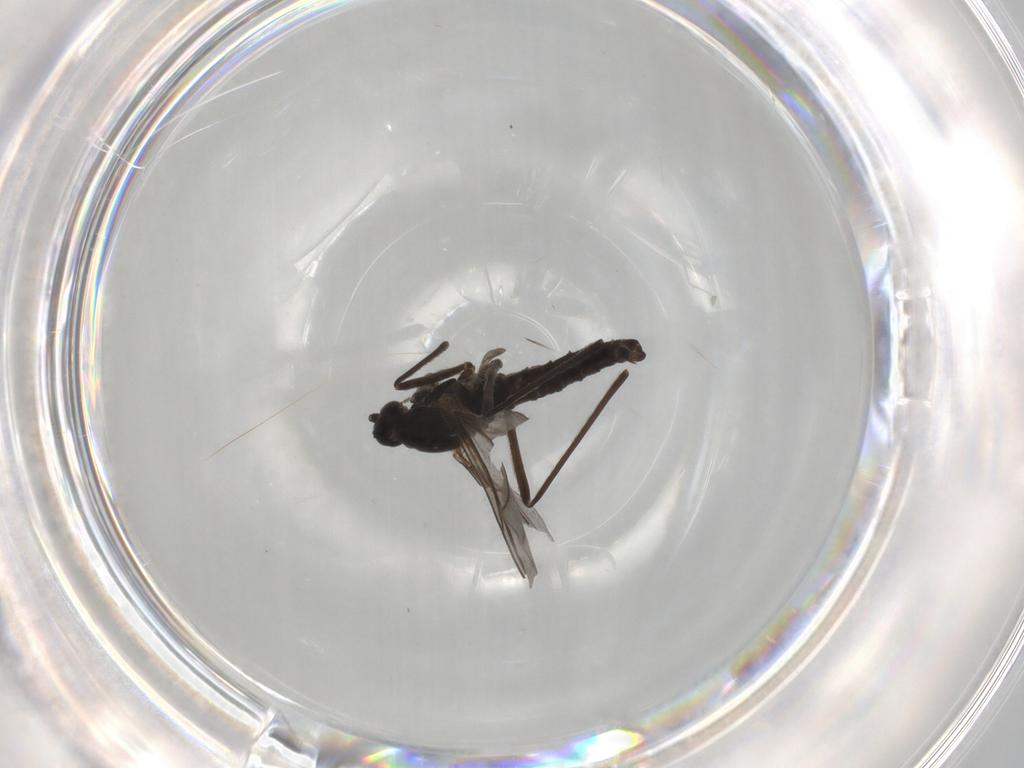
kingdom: Animalia
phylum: Arthropoda
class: Insecta
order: Diptera
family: Cecidomyiidae
